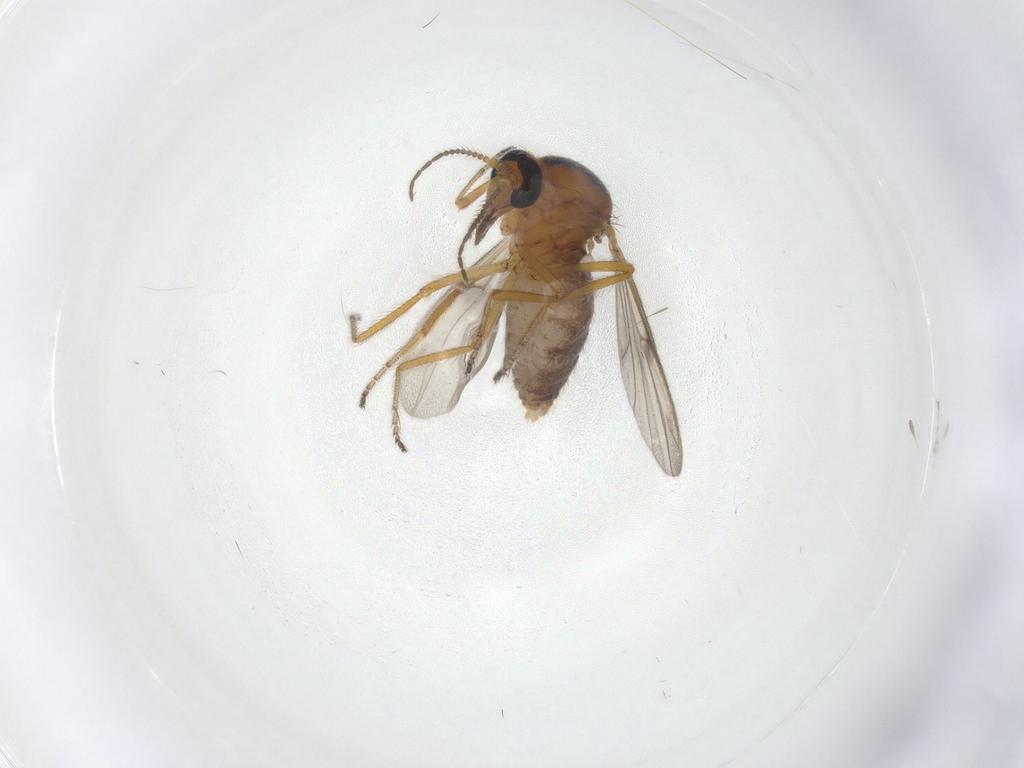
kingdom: Animalia
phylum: Arthropoda
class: Insecta
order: Diptera
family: Ceratopogonidae
